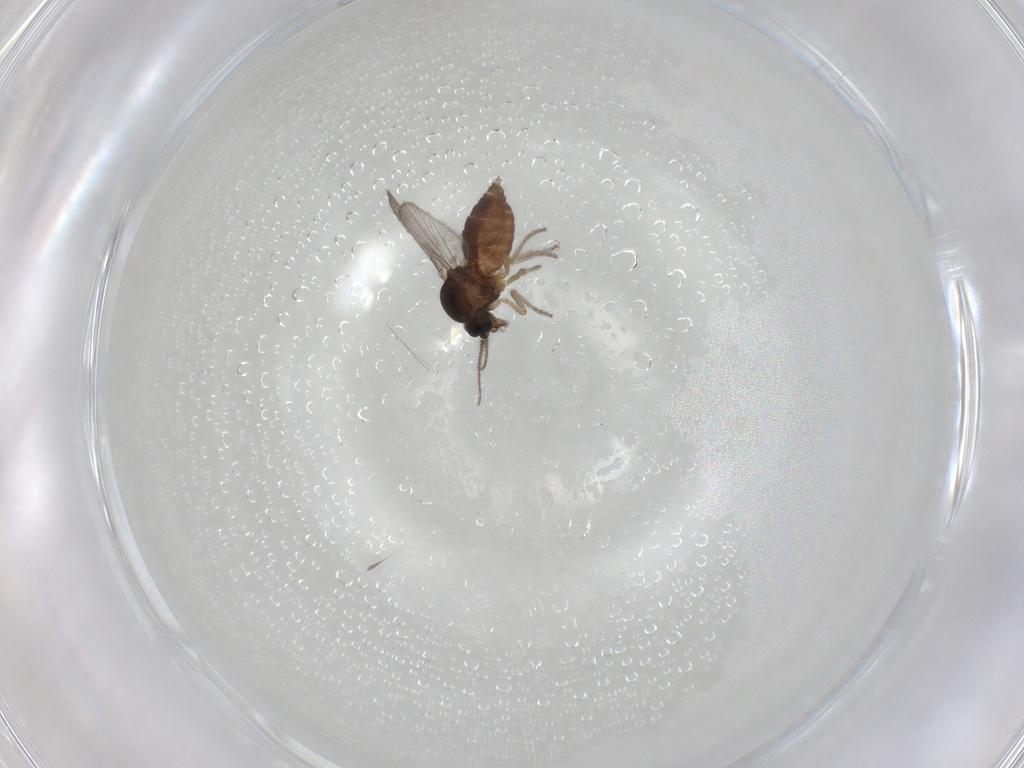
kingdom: Animalia
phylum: Arthropoda
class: Insecta
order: Diptera
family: Ceratopogonidae
